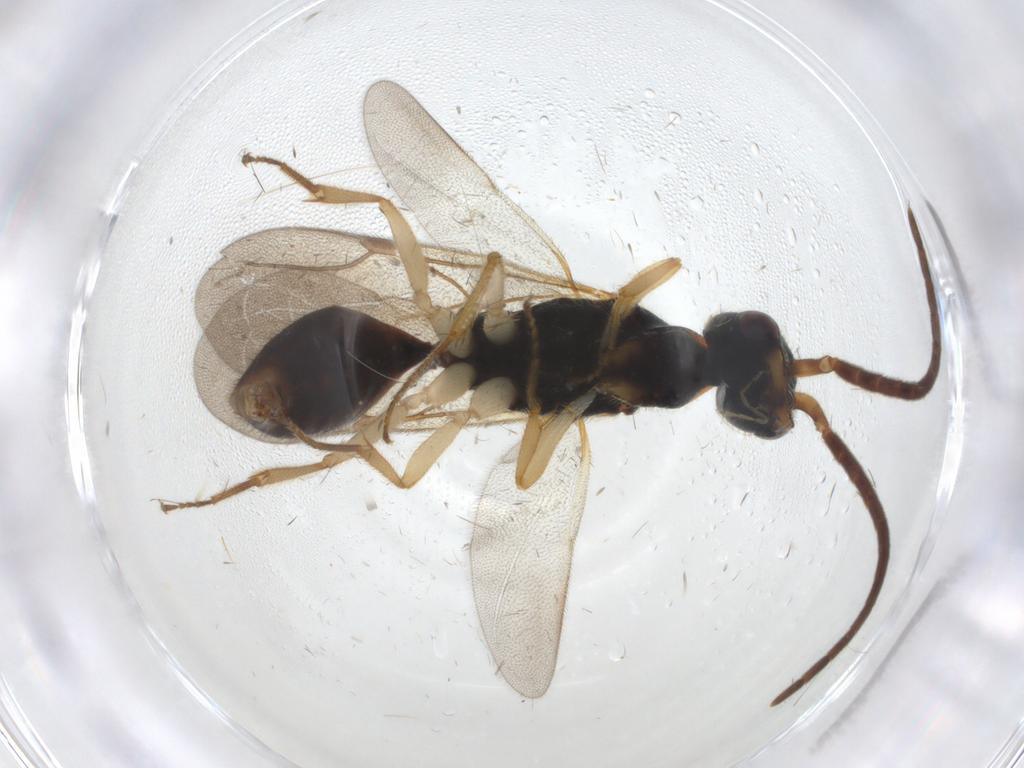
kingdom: Animalia
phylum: Arthropoda
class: Insecta
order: Hymenoptera
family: Bethylidae
